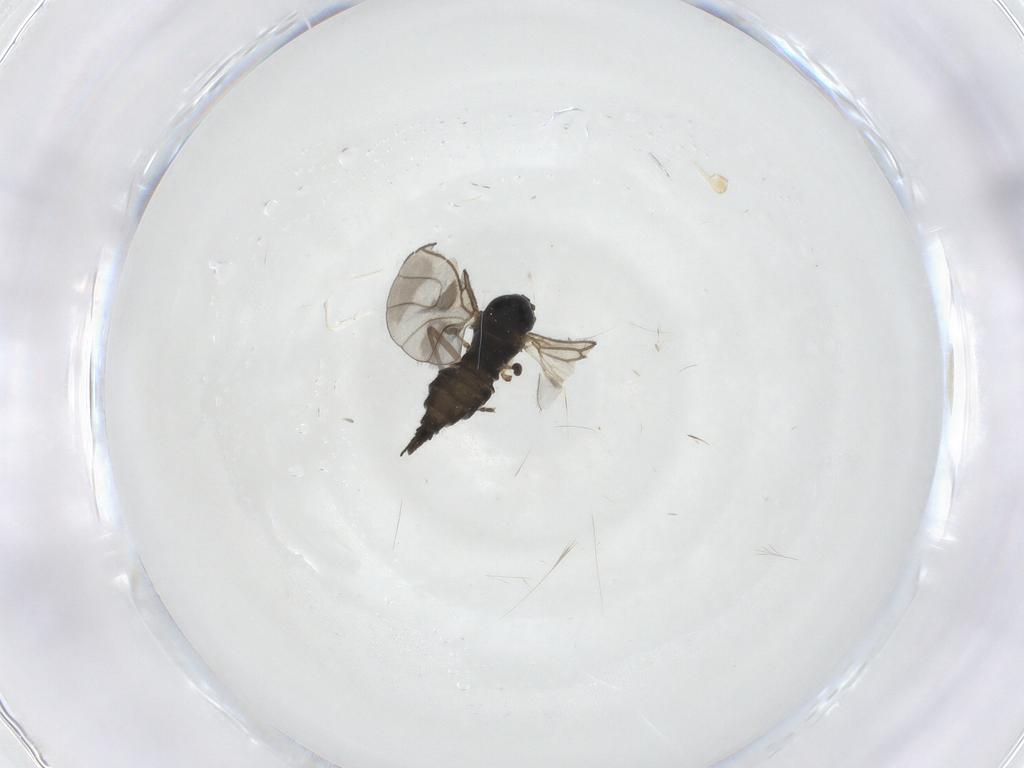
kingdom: Animalia
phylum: Arthropoda
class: Insecta
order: Diptera
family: Sciaridae
